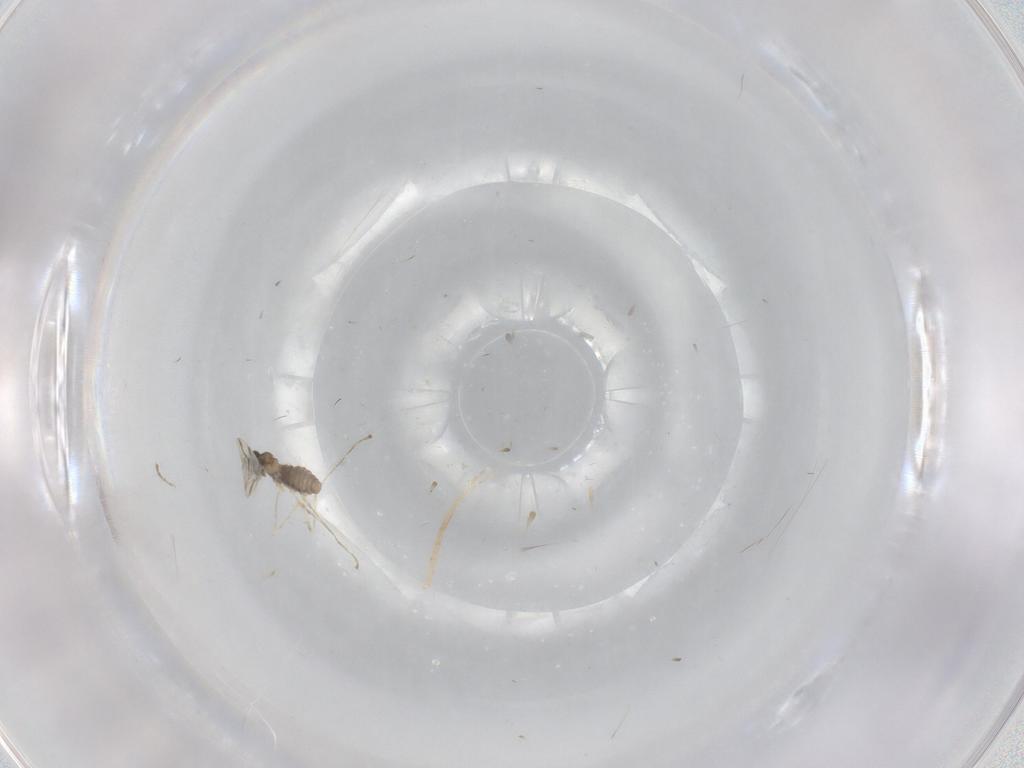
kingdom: Animalia
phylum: Arthropoda
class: Insecta
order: Diptera
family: Cecidomyiidae
